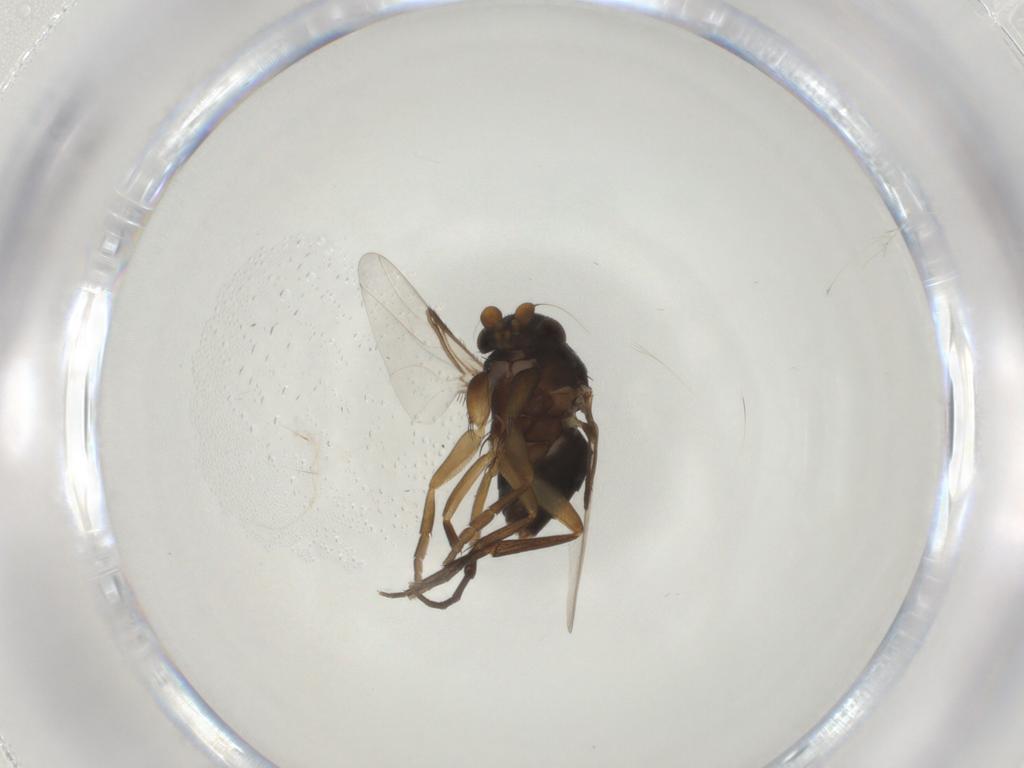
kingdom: Animalia
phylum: Arthropoda
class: Insecta
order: Diptera
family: Phoridae
